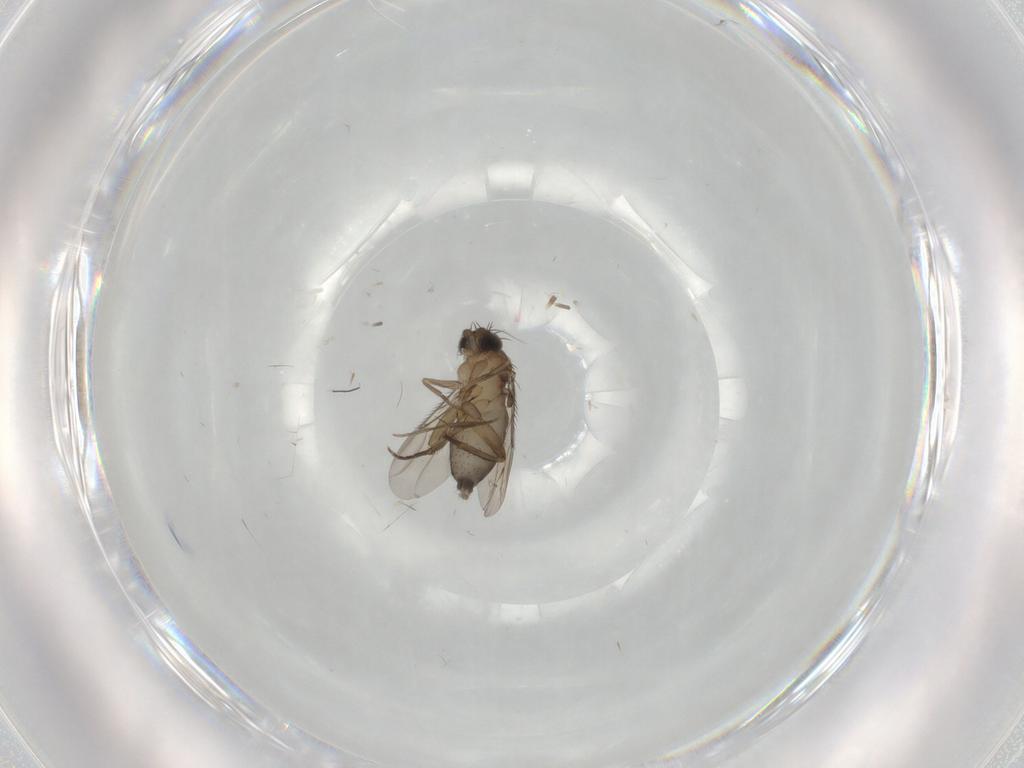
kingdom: Animalia
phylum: Arthropoda
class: Insecta
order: Diptera
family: Phoridae
